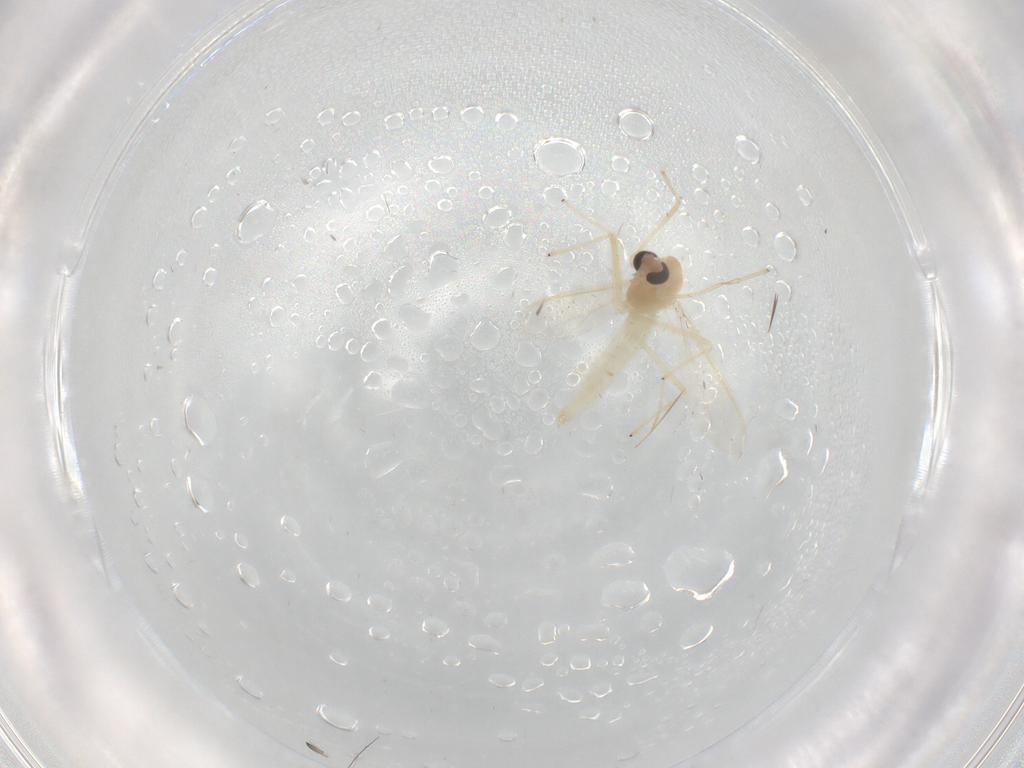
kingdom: Animalia
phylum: Arthropoda
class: Insecta
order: Diptera
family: Chironomidae
